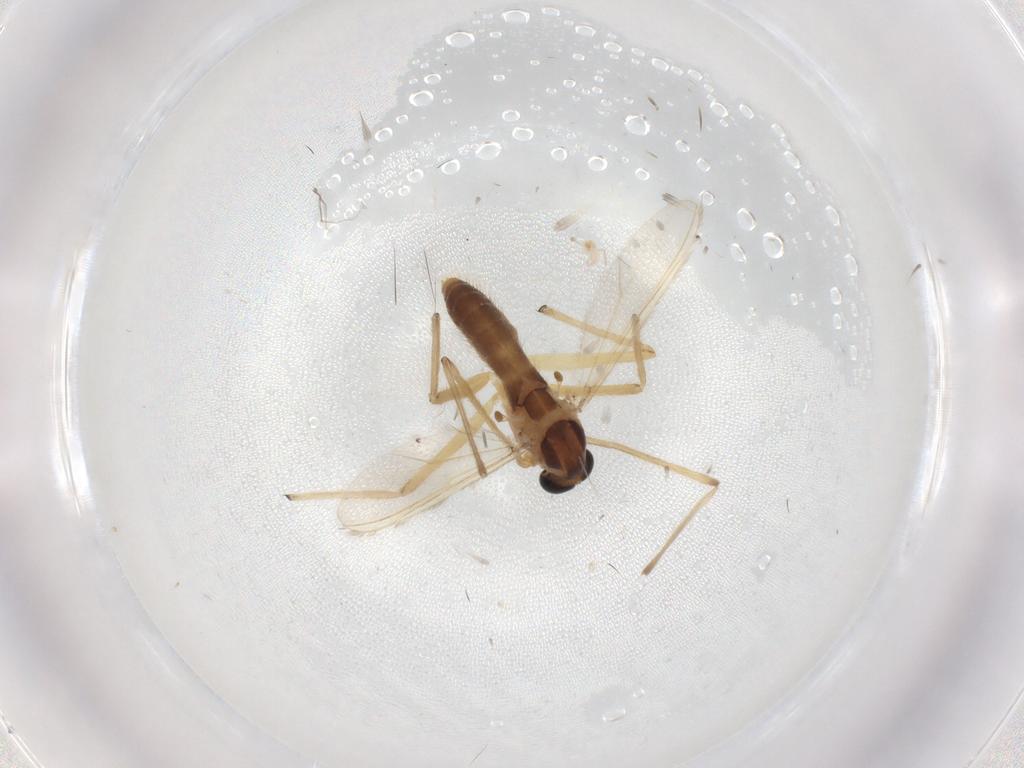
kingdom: Animalia
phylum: Arthropoda
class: Insecta
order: Diptera
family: Chironomidae
